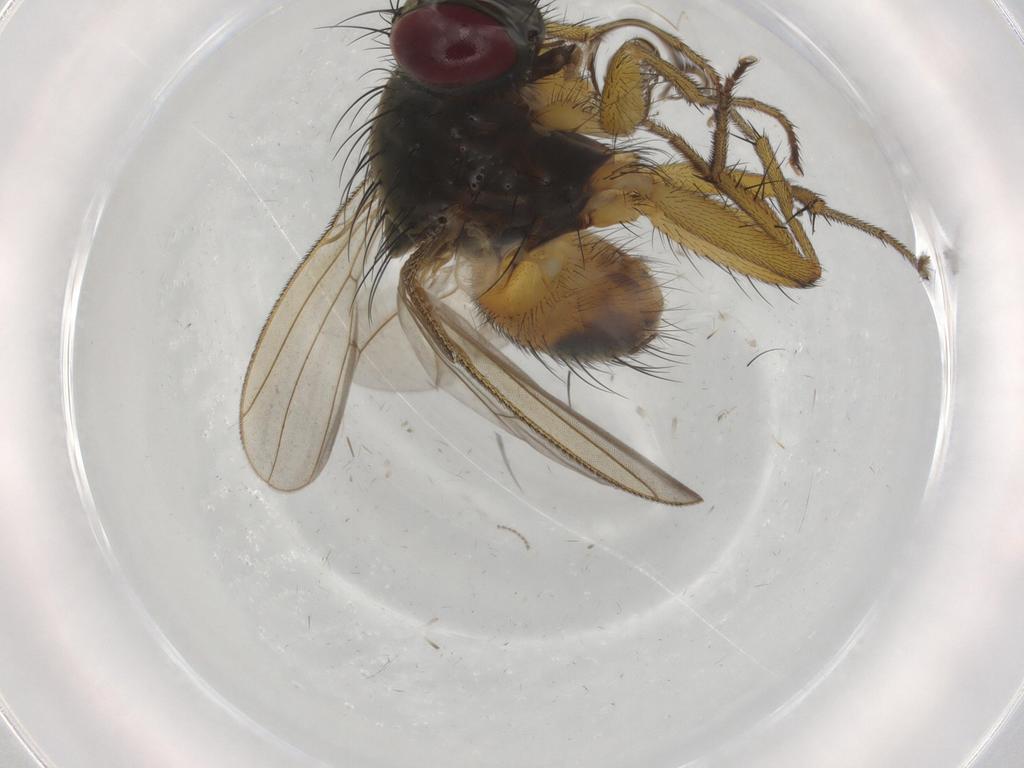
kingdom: Animalia
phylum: Arthropoda
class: Insecta
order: Diptera
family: Muscidae
